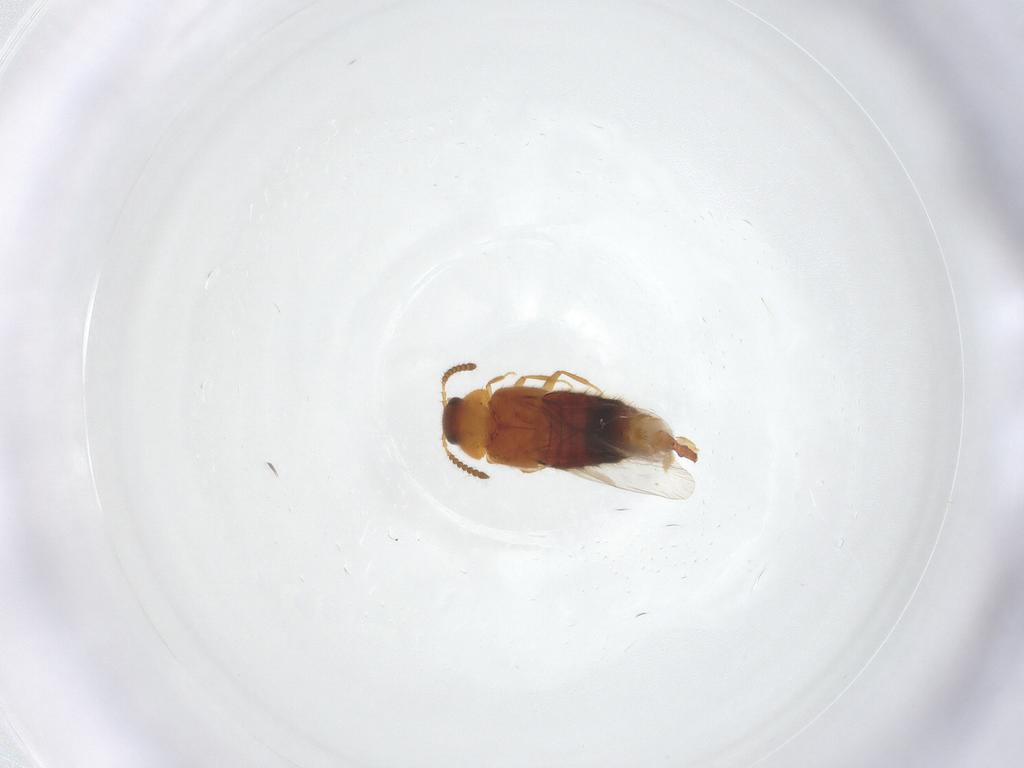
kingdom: Animalia
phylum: Arthropoda
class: Insecta
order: Coleoptera
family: Staphylinidae
